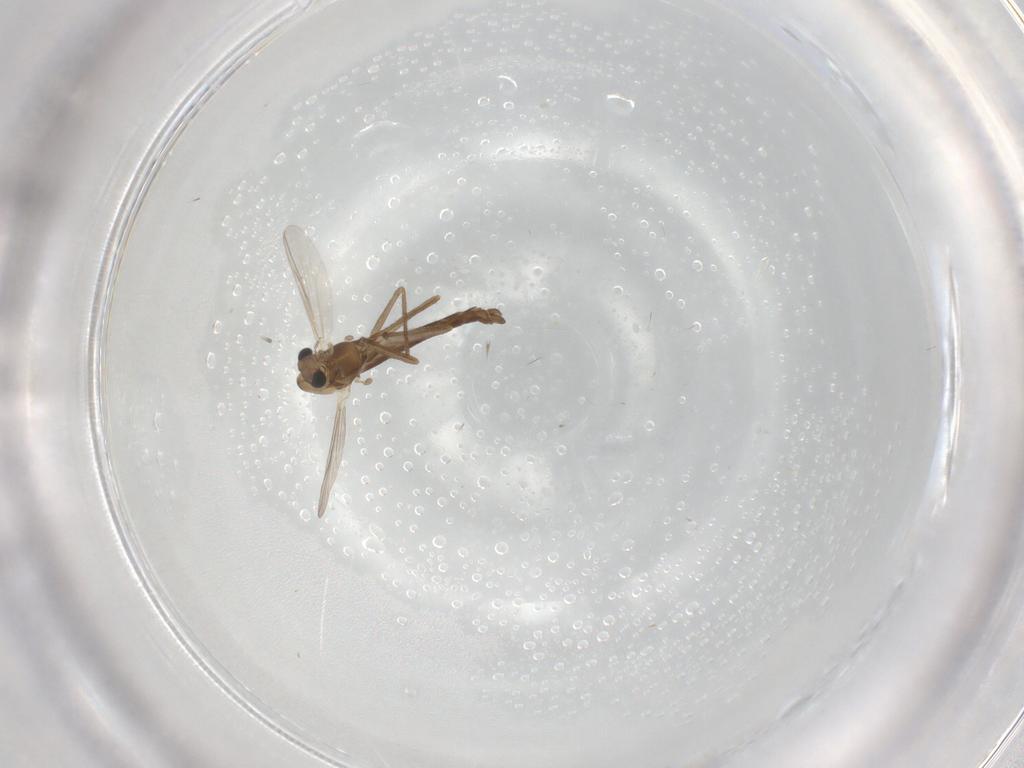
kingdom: Animalia
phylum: Arthropoda
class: Insecta
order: Diptera
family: Chironomidae
